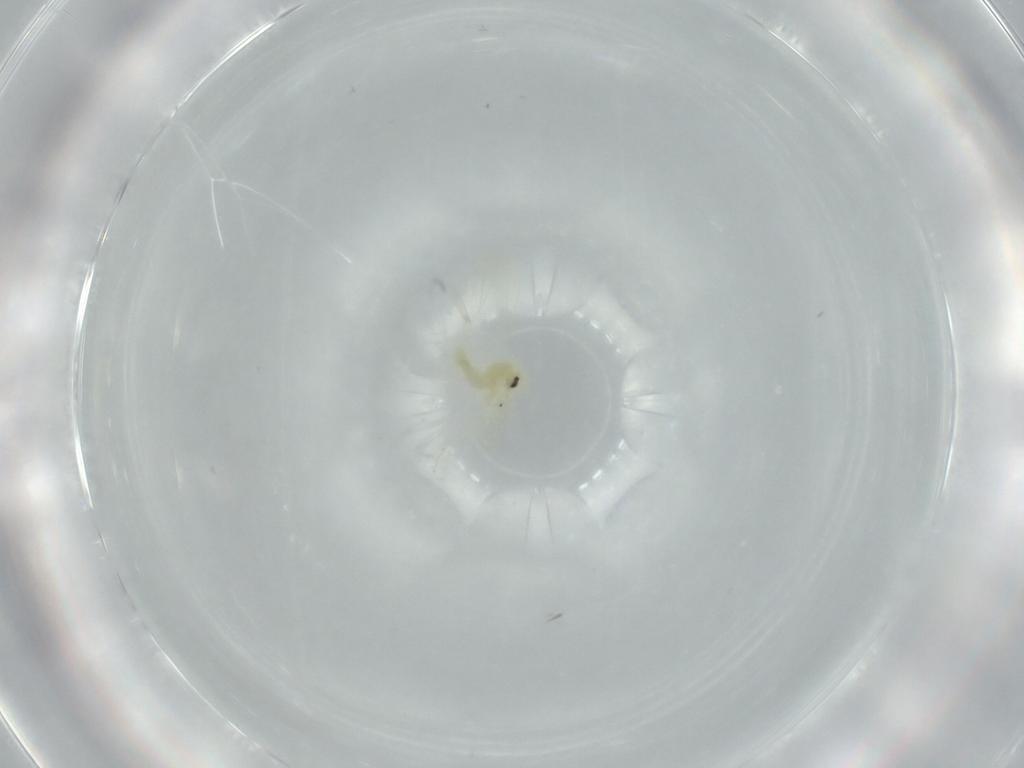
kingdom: Animalia
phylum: Arthropoda
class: Insecta
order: Hemiptera
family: Aleyrodidae
